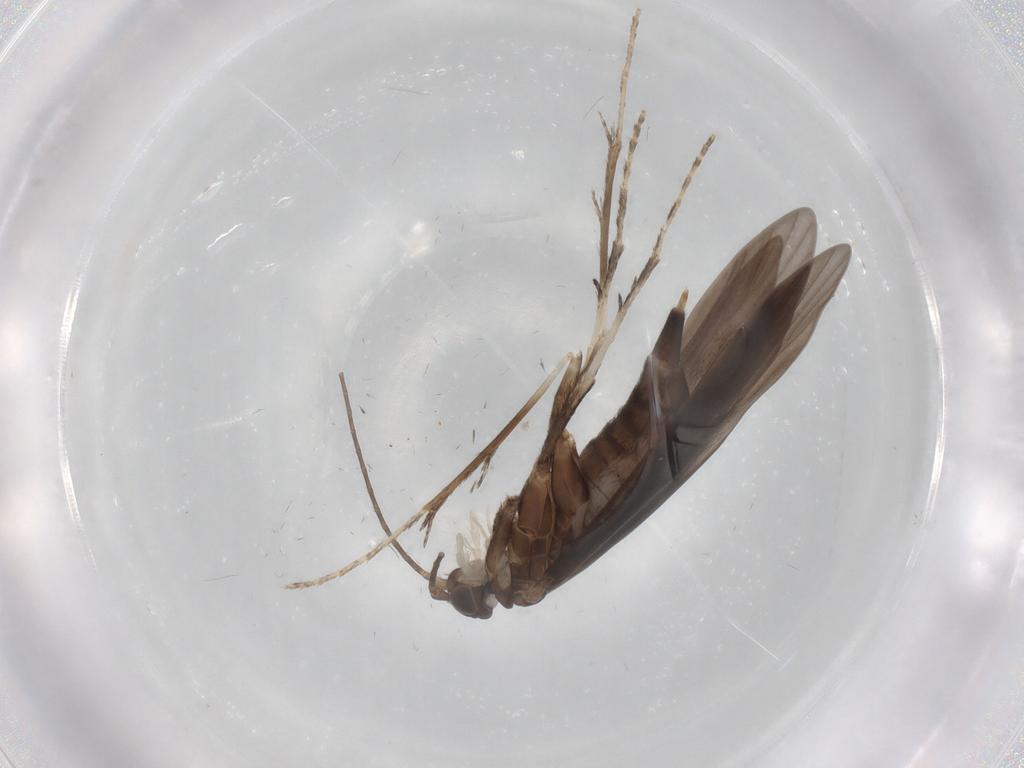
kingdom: Animalia
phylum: Arthropoda
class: Insecta
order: Trichoptera
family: Xiphocentronidae
